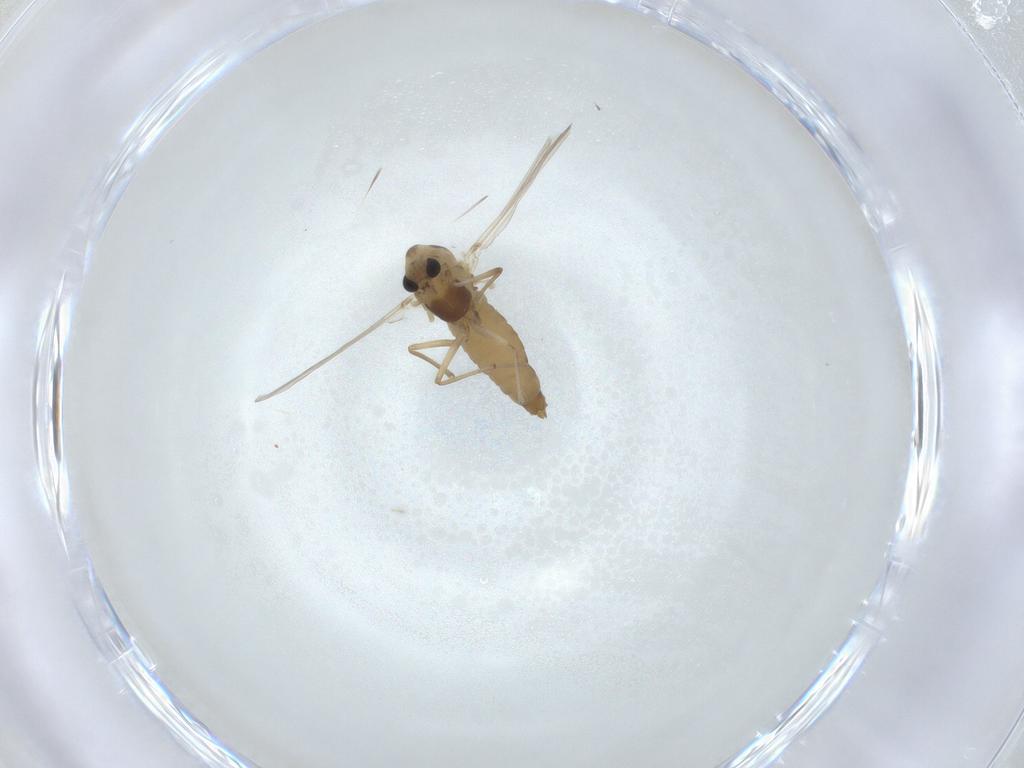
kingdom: Animalia
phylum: Arthropoda
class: Insecta
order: Diptera
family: Chironomidae
